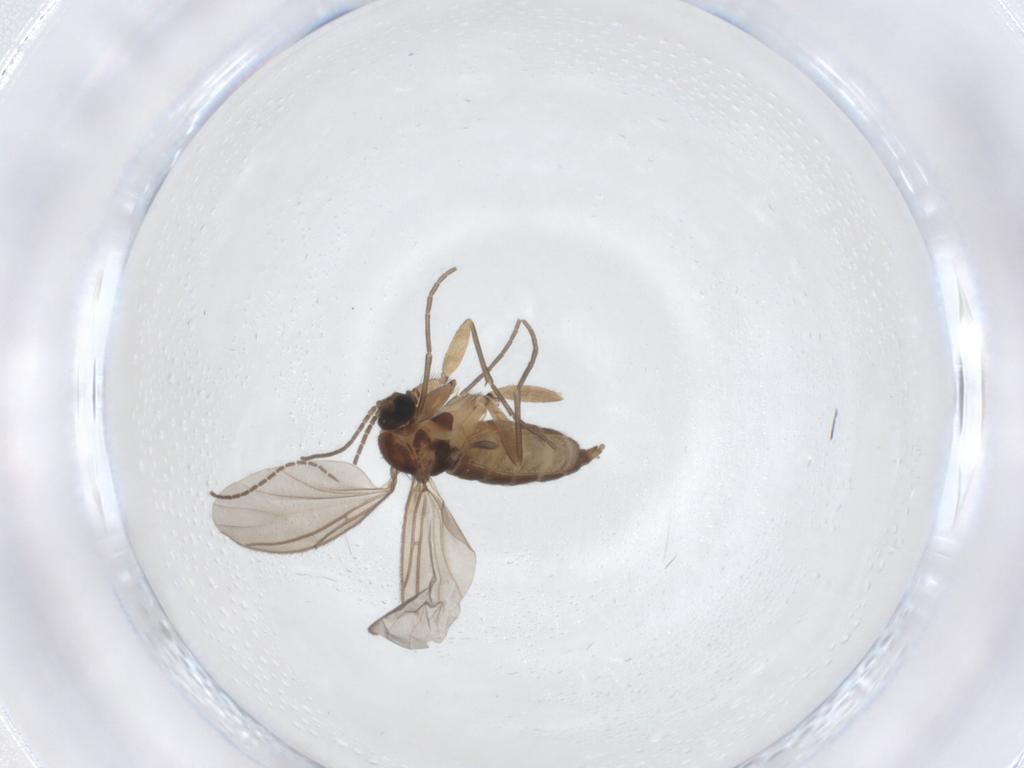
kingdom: Animalia
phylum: Arthropoda
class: Insecta
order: Diptera
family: Sciaridae
